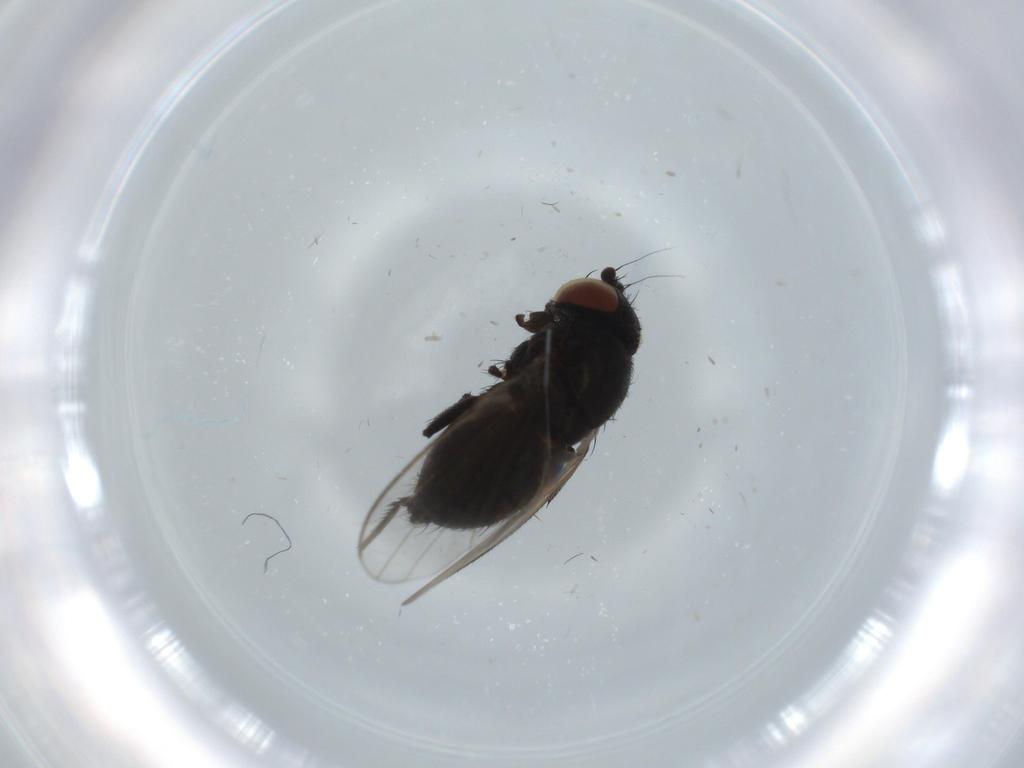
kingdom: Animalia
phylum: Arthropoda
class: Insecta
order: Diptera
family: Milichiidae
